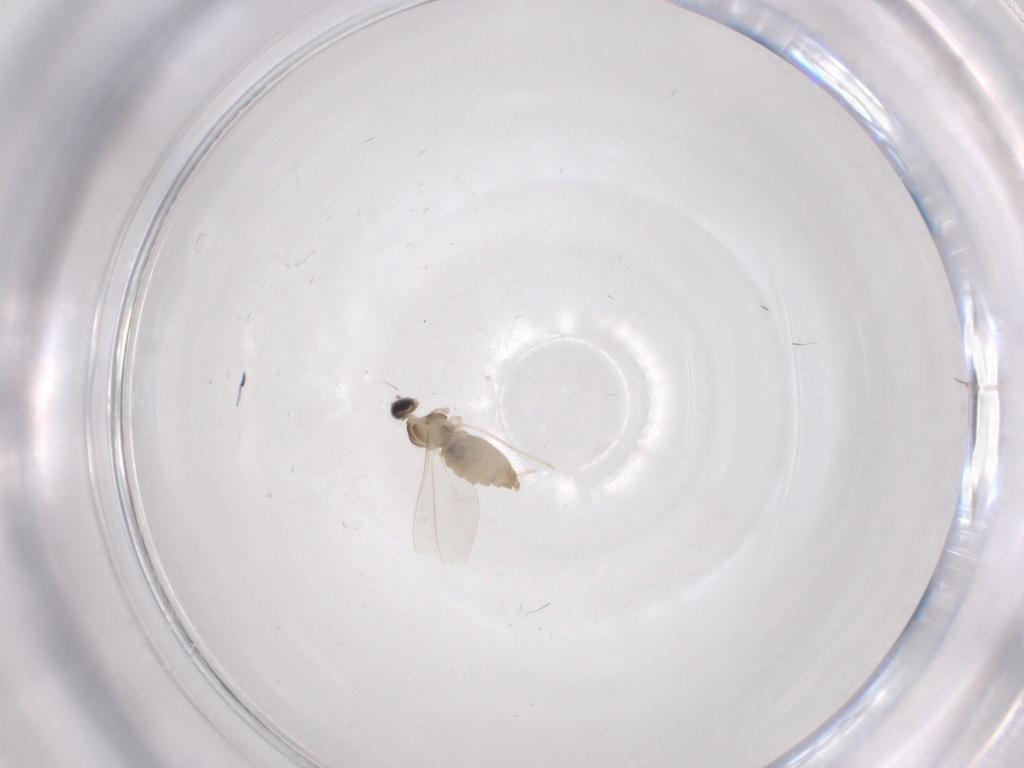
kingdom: Animalia
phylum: Arthropoda
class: Insecta
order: Diptera
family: Cecidomyiidae
